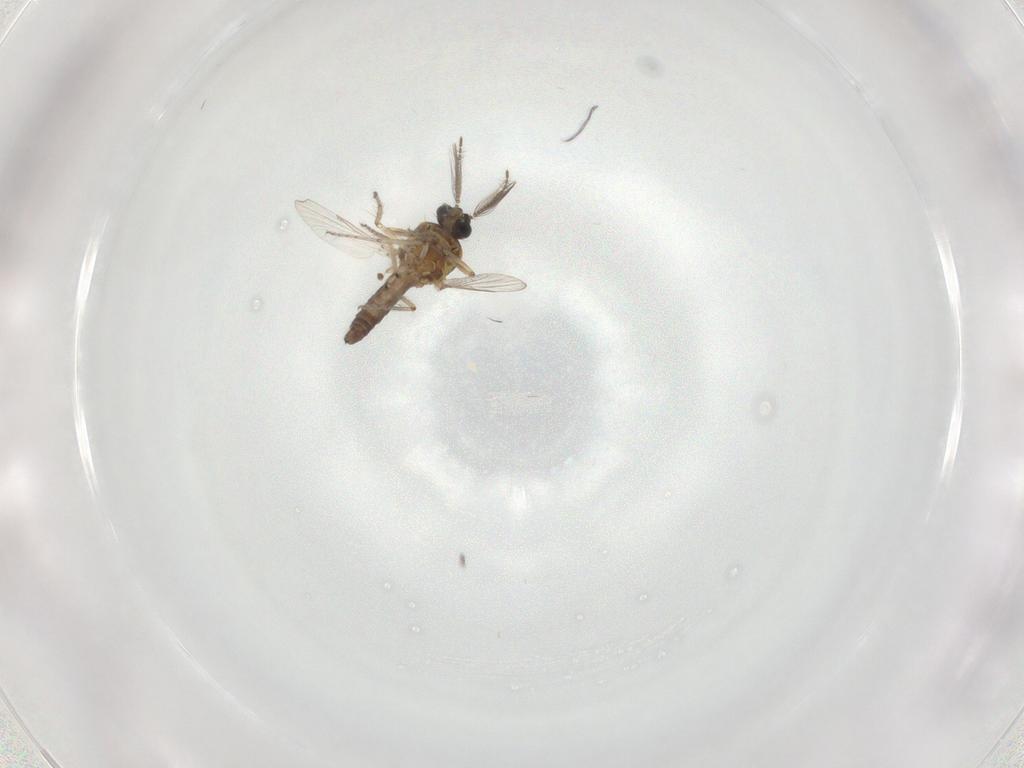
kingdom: Animalia
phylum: Arthropoda
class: Insecta
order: Diptera
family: Ceratopogonidae
